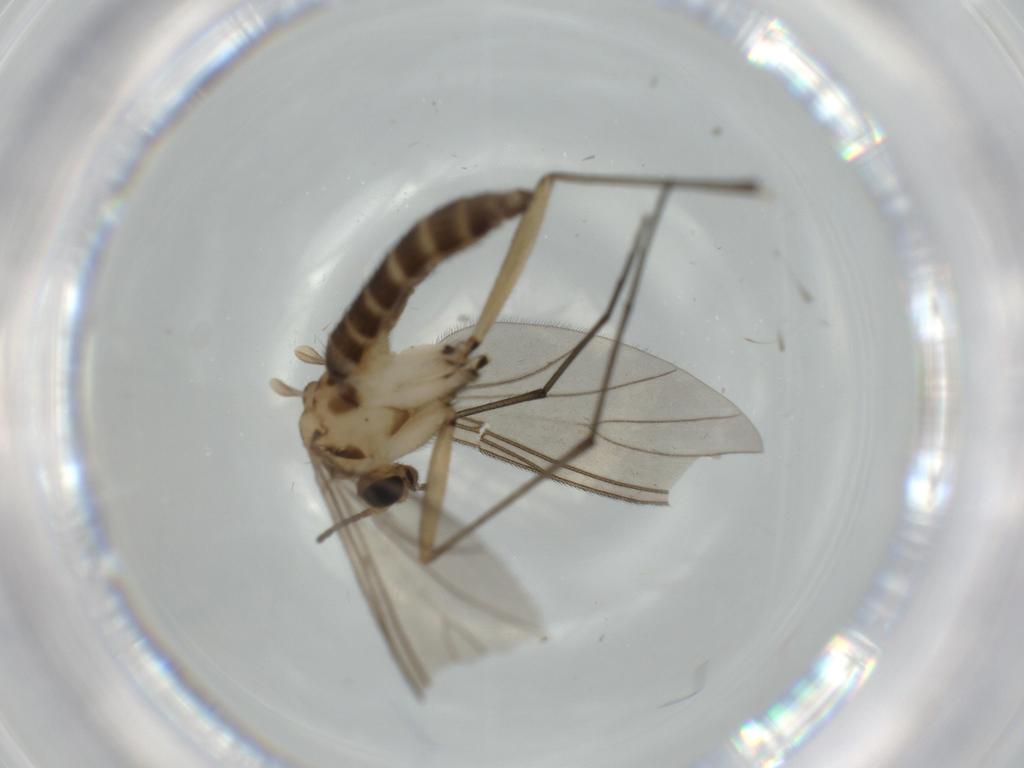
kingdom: Animalia
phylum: Arthropoda
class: Insecta
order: Diptera
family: Sciaridae
